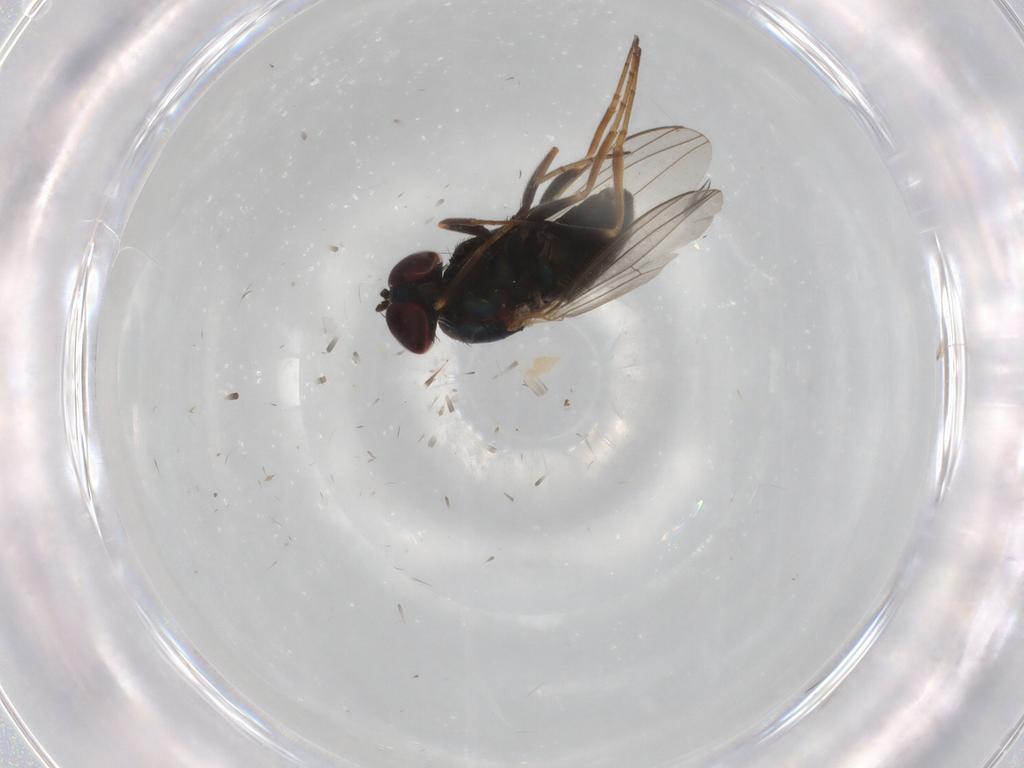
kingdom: Animalia
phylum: Arthropoda
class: Insecta
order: Diptera
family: Dolichopodidae
